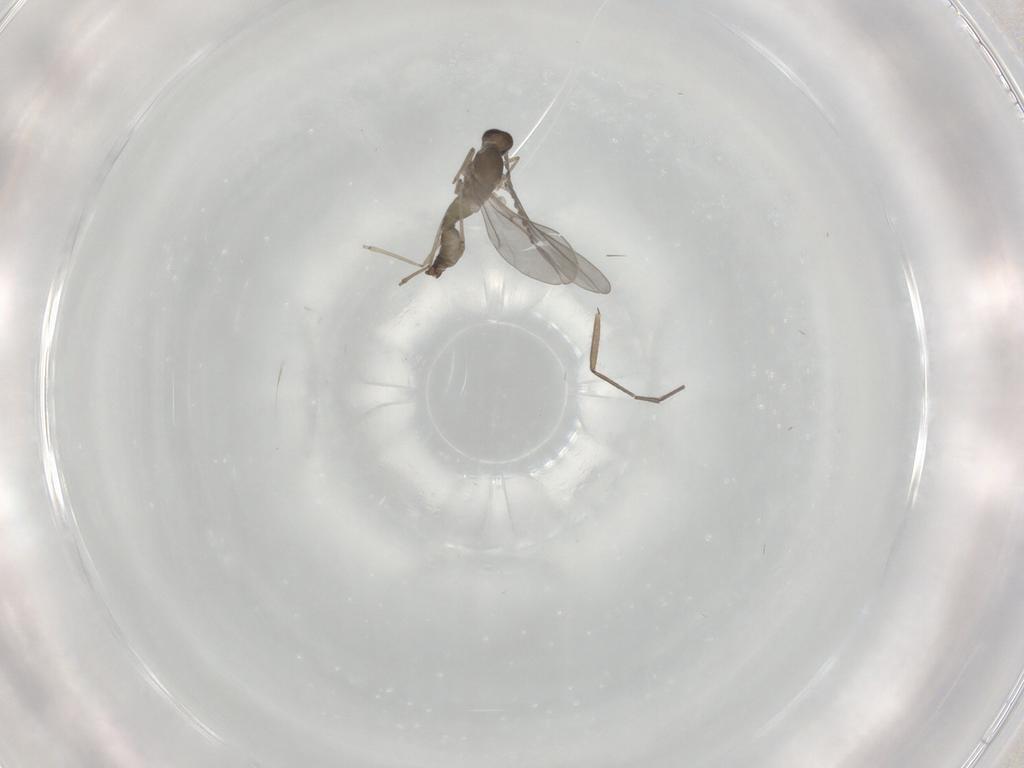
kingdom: Animalia
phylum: Arthropoda
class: Insecta
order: Diptera
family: Cecidomyiidae
